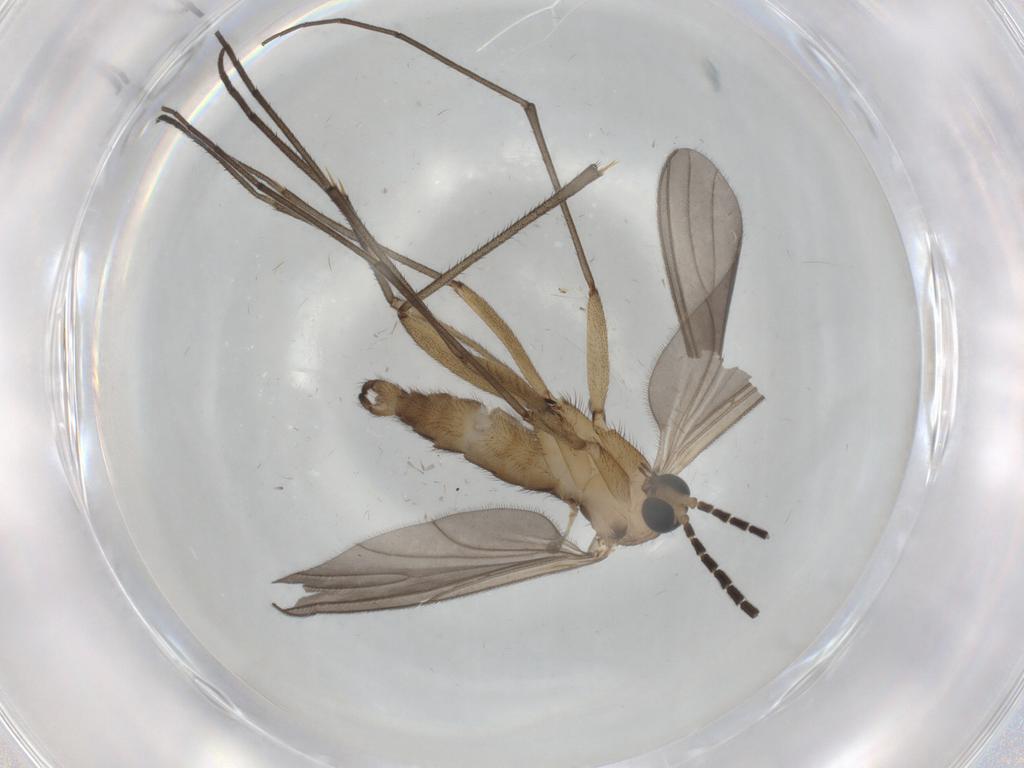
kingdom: Animalia
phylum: Arthropoda
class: Insecta
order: Diptera
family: Sciaridae
